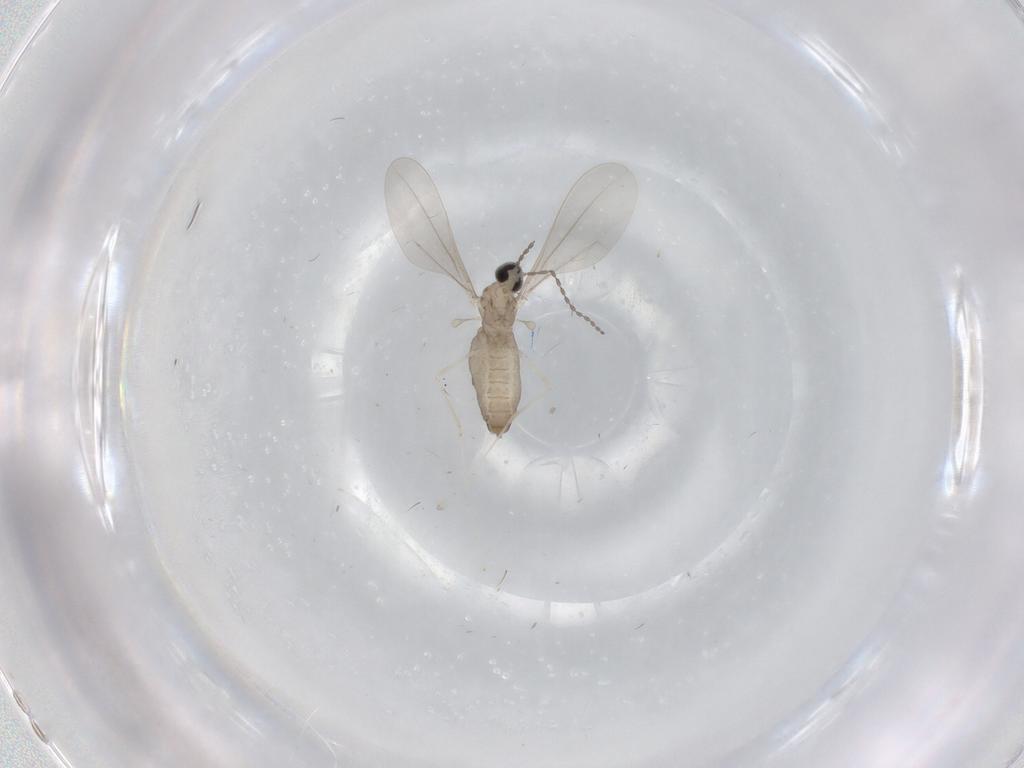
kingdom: Animalia
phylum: Arthropoda
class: Insecta
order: Diptera
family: Cecidomyiidae
